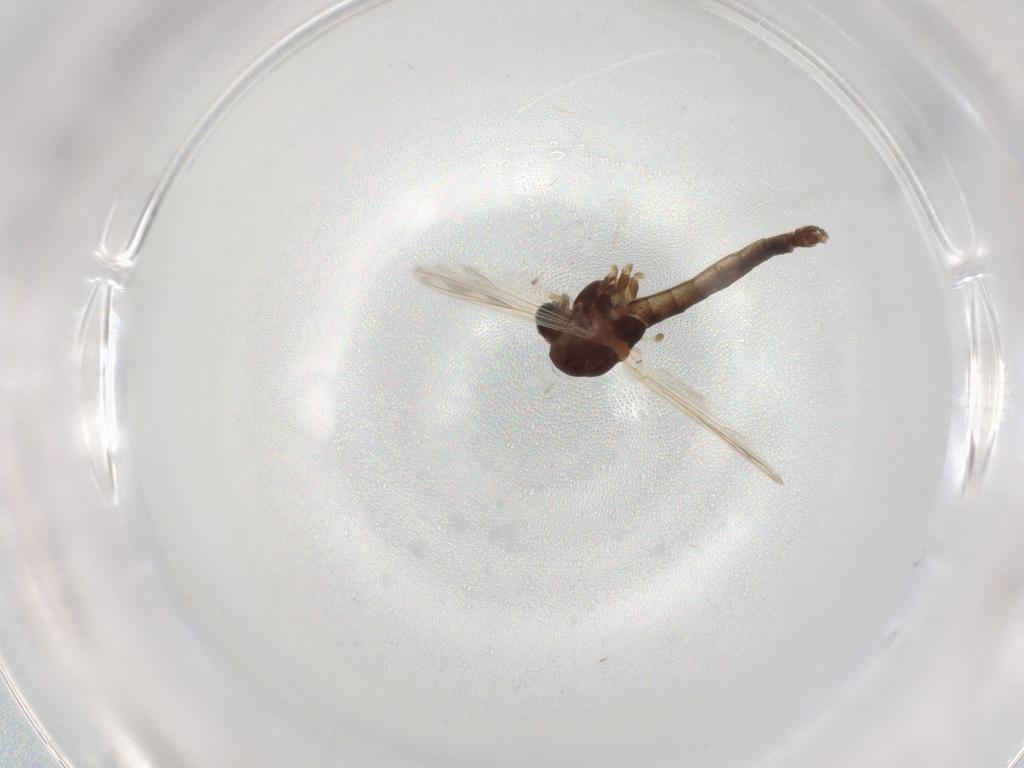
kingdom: Animalia
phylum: Arthropoda
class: Insecta
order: Diptera
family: Chironomidae
